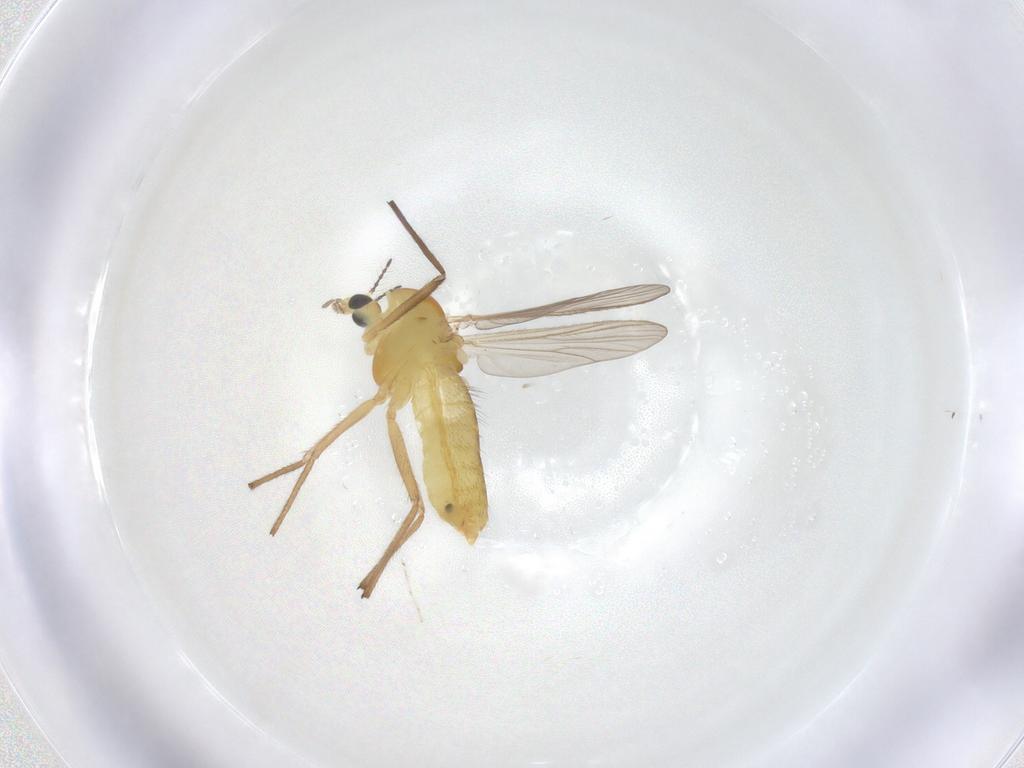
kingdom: Animalia
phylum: Arthropoda
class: Insecta
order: Diptera
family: Chironomidae
